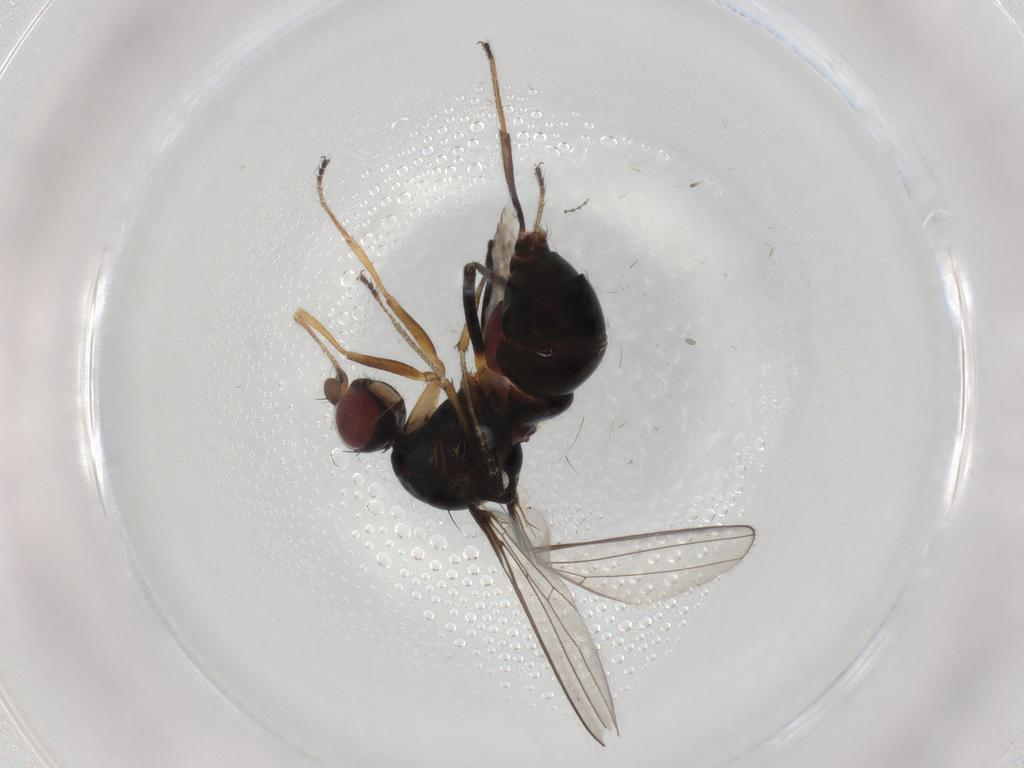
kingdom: Animalia
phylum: Arthropoda
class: Insecta
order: Diptera
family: Sepsidae
